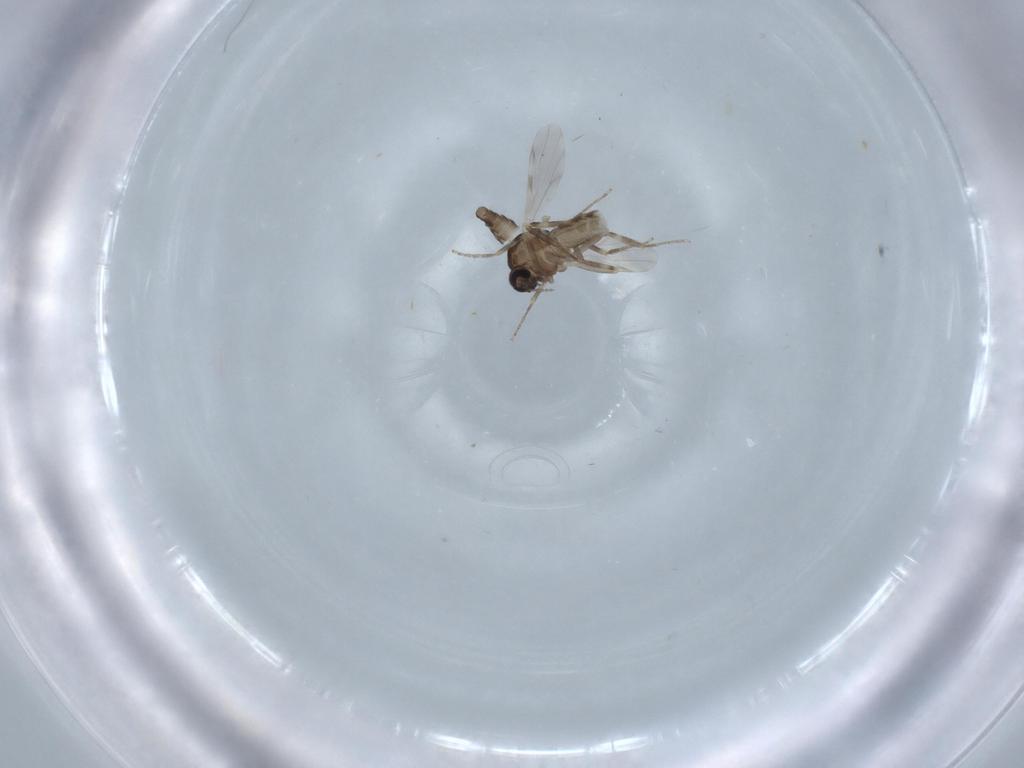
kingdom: Animalia
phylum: Arthropoda
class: Insecta
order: Diptera
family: Ceratopogonidae
